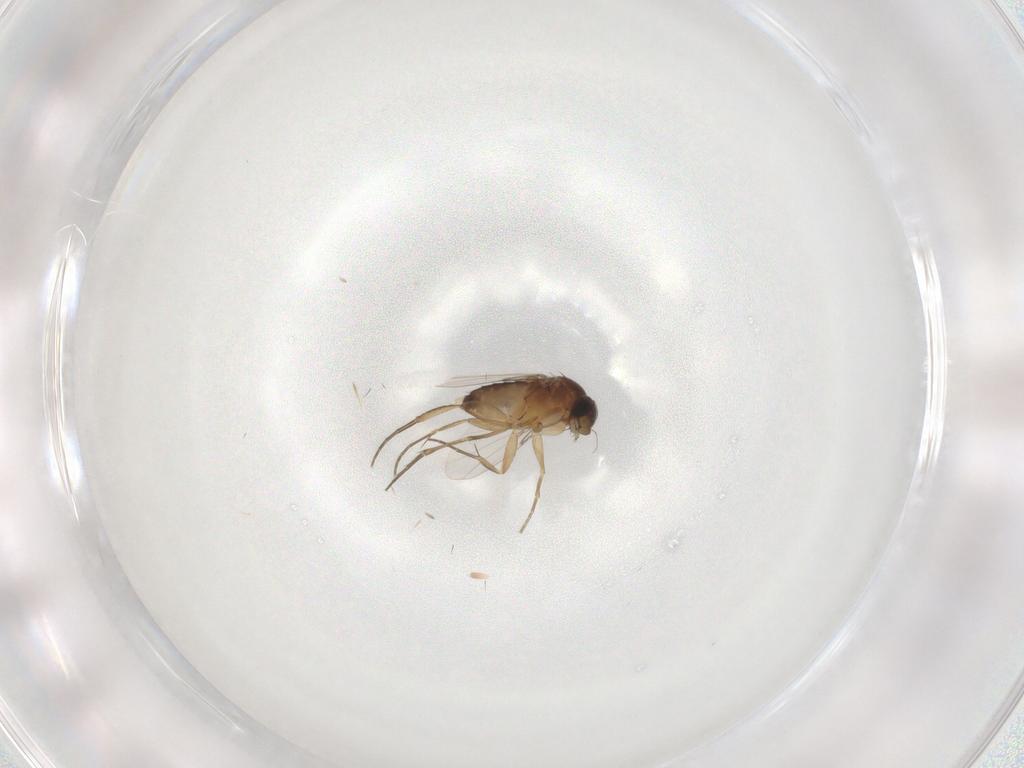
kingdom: Animalia
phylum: Arthropoda
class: Insecta
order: Diptera
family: Phoridae
